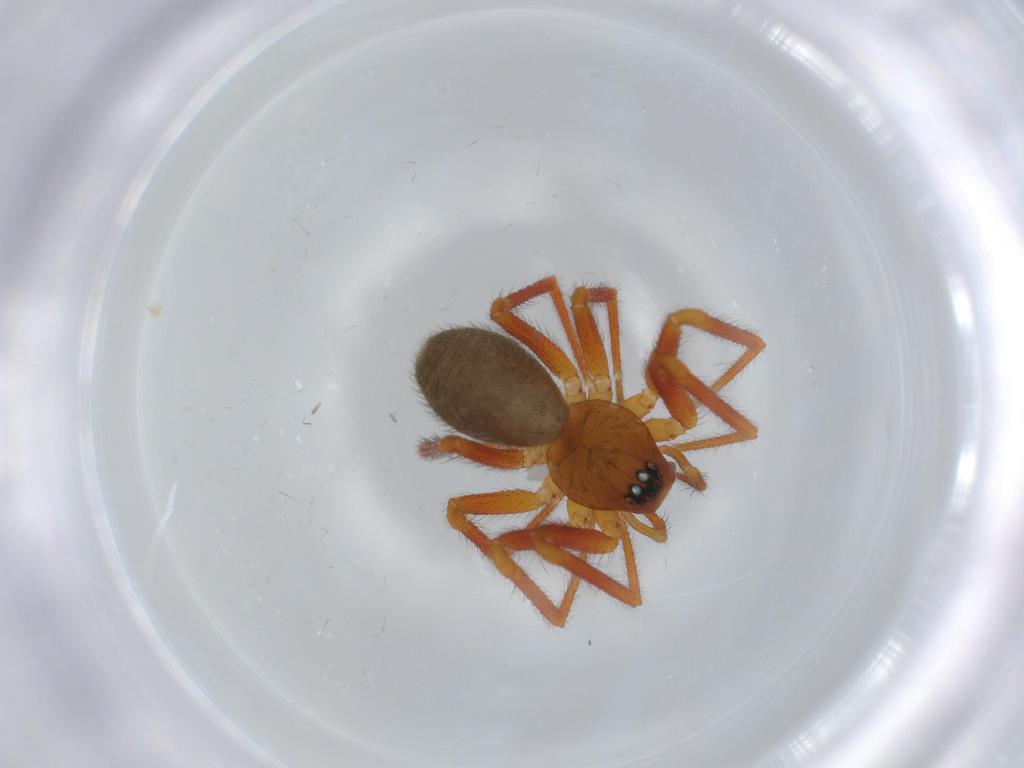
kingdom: Animalia
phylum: Arthropoda
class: Arachnida
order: Araneae
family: Linyphiidae
